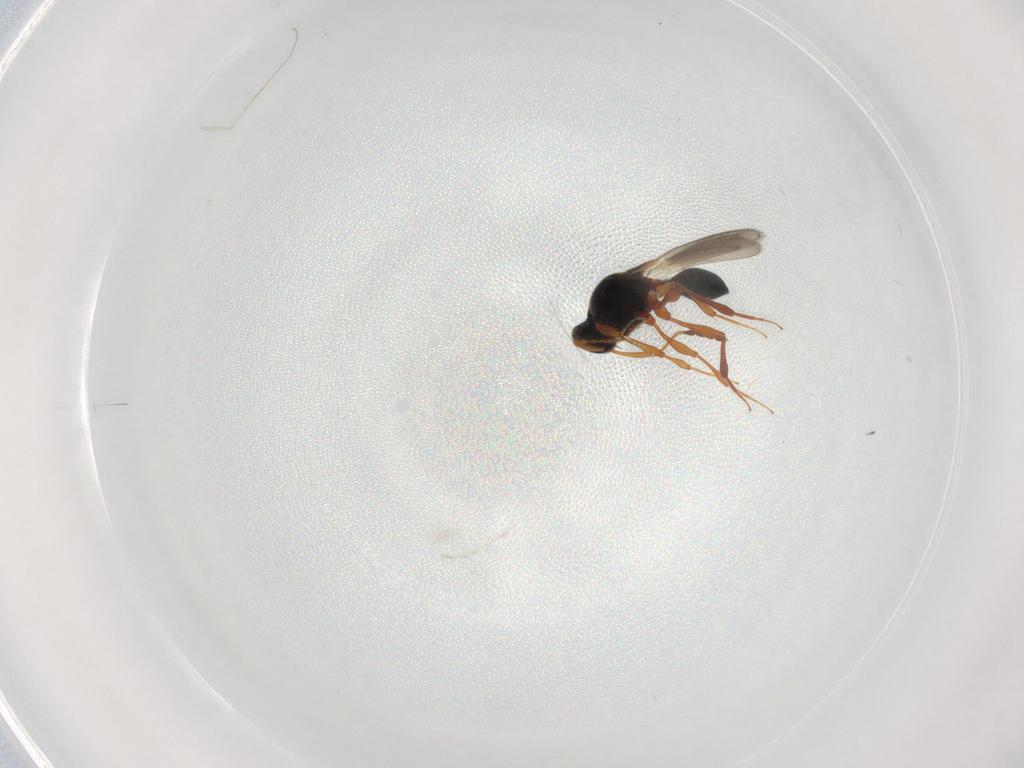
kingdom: Animalia
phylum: Arthropoda
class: Insecta
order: Hymenoptera
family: Platygastridae
